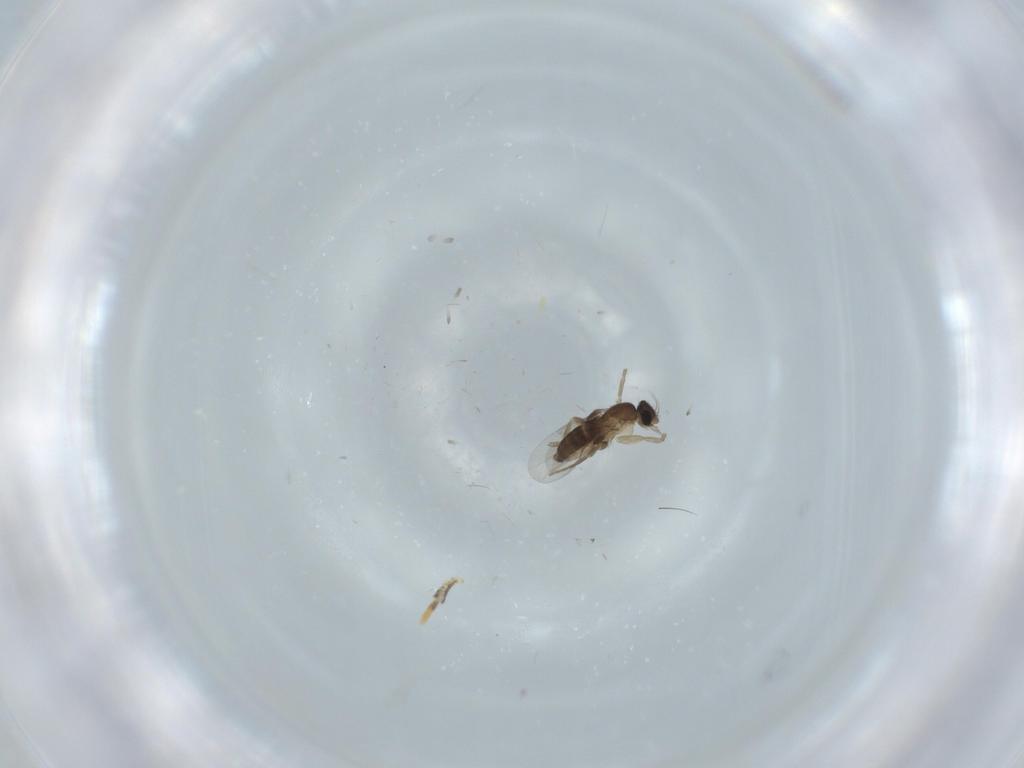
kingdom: Animalia
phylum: Arthropoda
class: Insecta
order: Diptera
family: Phoridae
